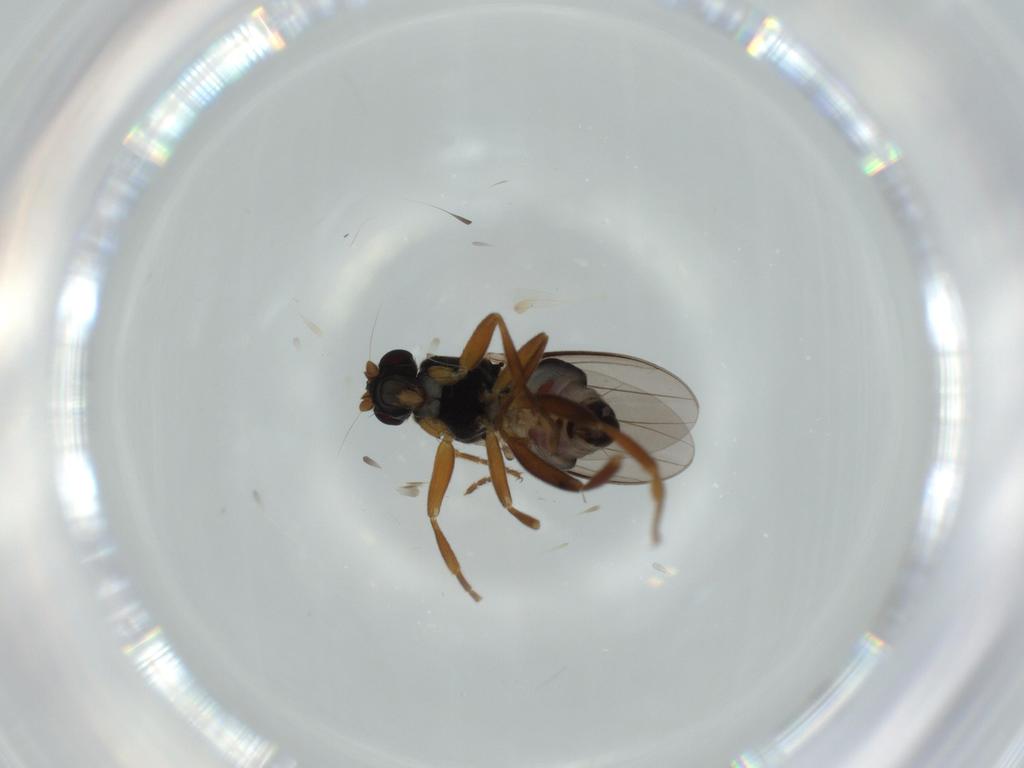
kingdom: Animalia
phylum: Arthropoda
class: Insecta
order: Diptera
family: Sphaeroceridae
